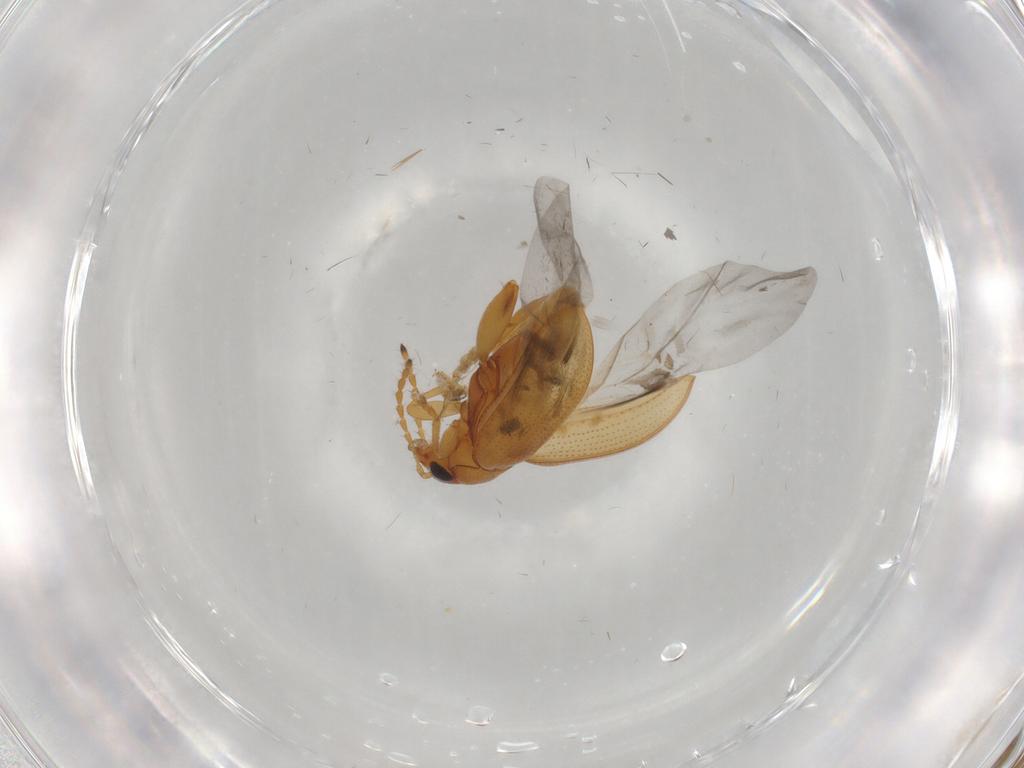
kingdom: Animalia
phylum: Arthropoda
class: Insecta
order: Coleoptera
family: Chrysomelidae
